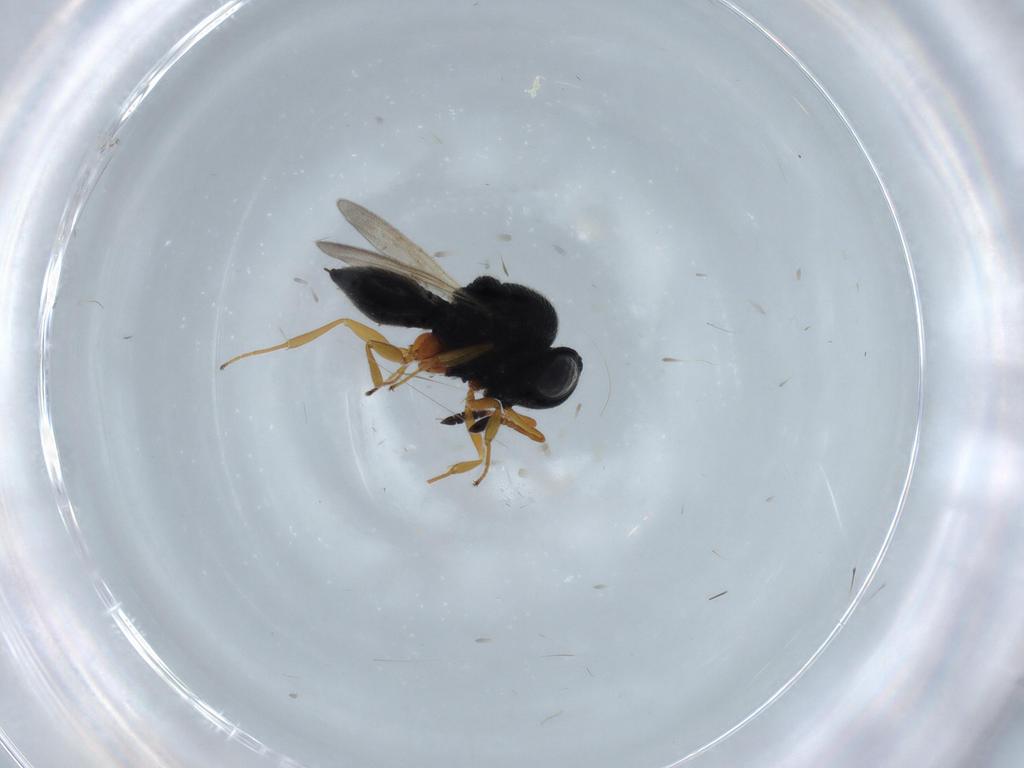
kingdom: Animalia
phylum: Arthropoda
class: Insecta
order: Hymenoptera
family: Scelionidae
